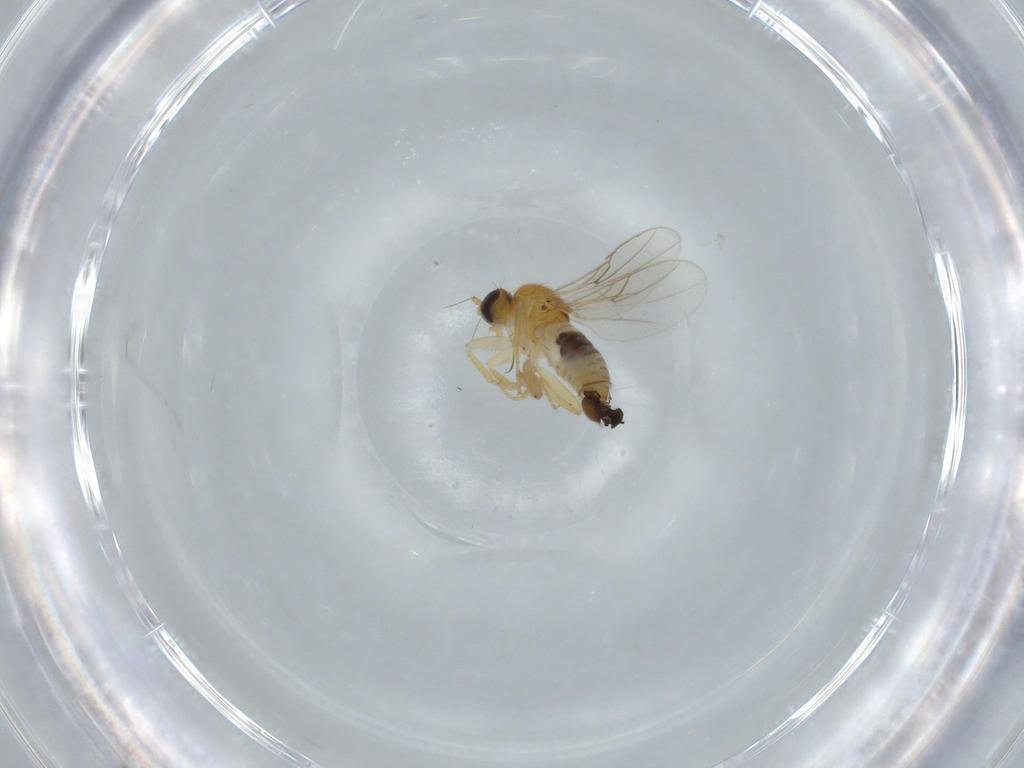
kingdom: Animalia
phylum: Arthropoda
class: Insecta
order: Diptera
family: Hybotidae
